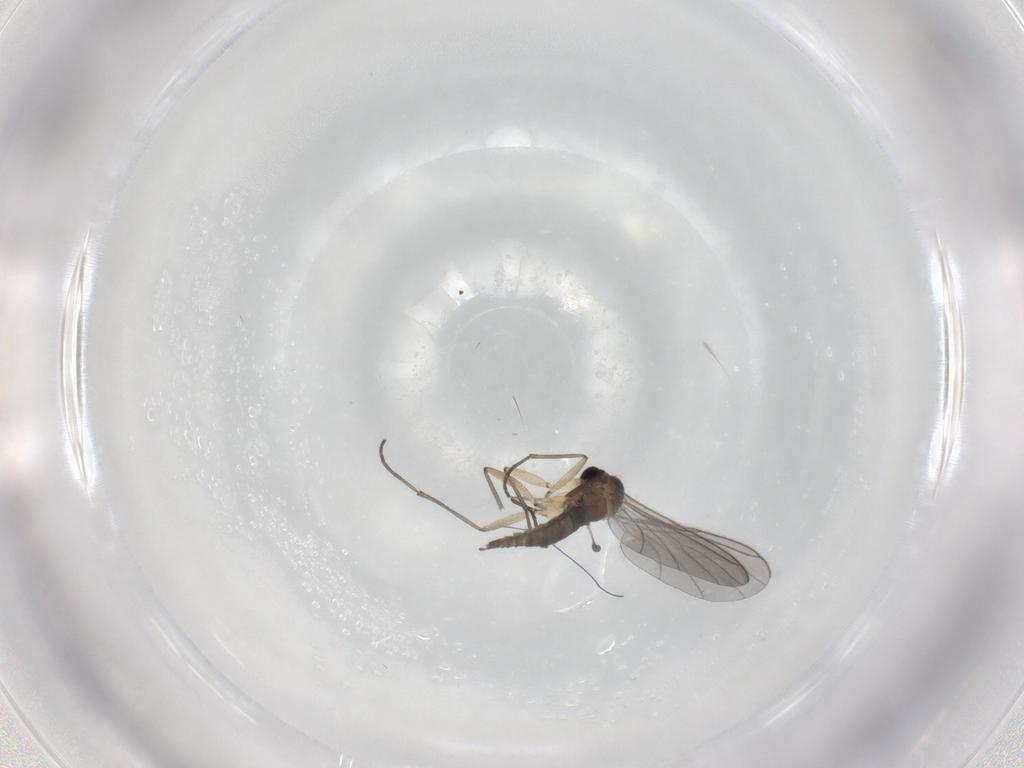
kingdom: Animalia
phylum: Arthropoda
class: Insecta
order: Diptera
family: Sciaridae
